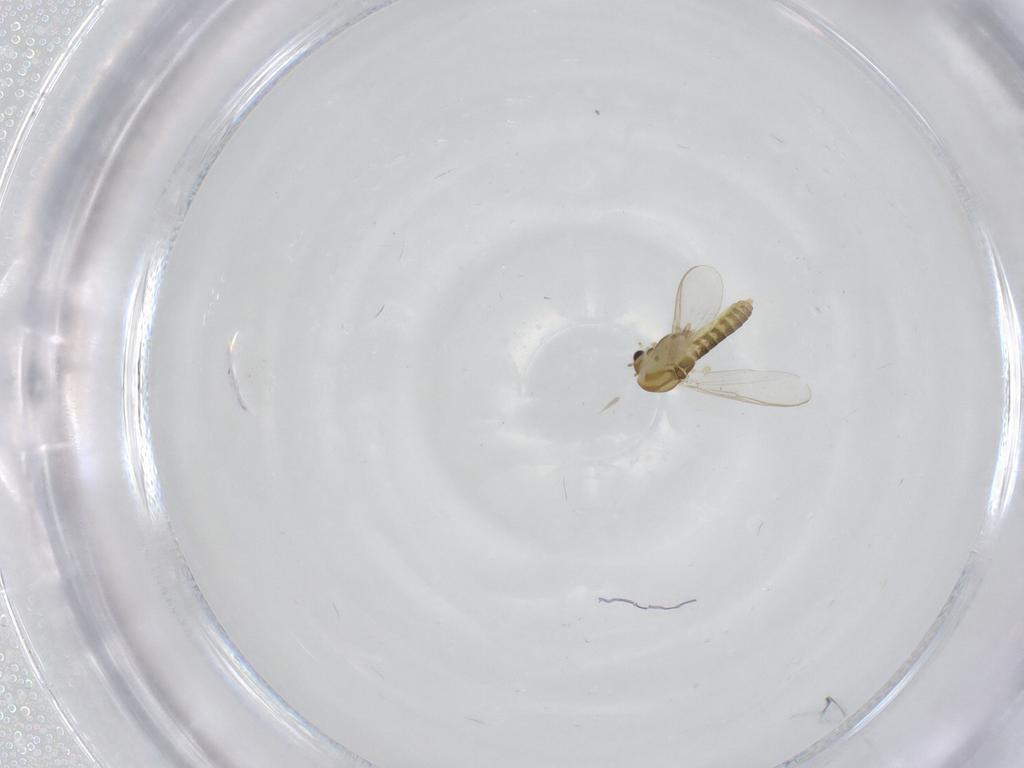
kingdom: Animalia
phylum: Arthropoda
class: Insecta
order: Diptera
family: Chironomidae
